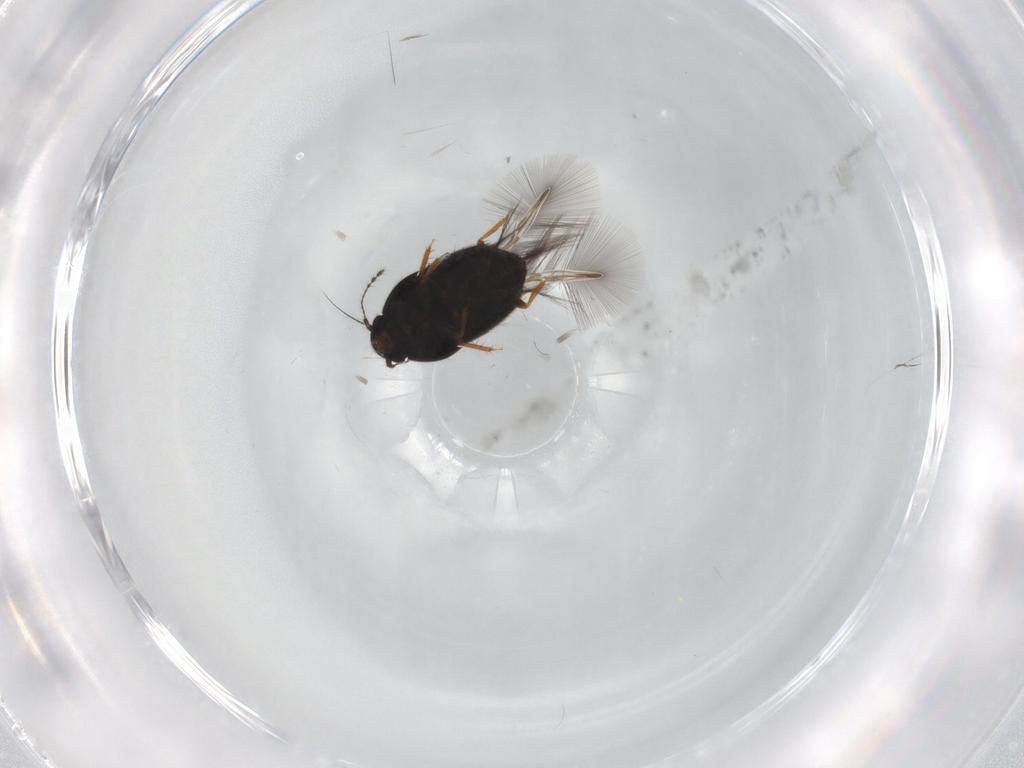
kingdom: Animalia
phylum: Arthropoda
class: Insecta
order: Coleoptera
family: Ptiliidae
